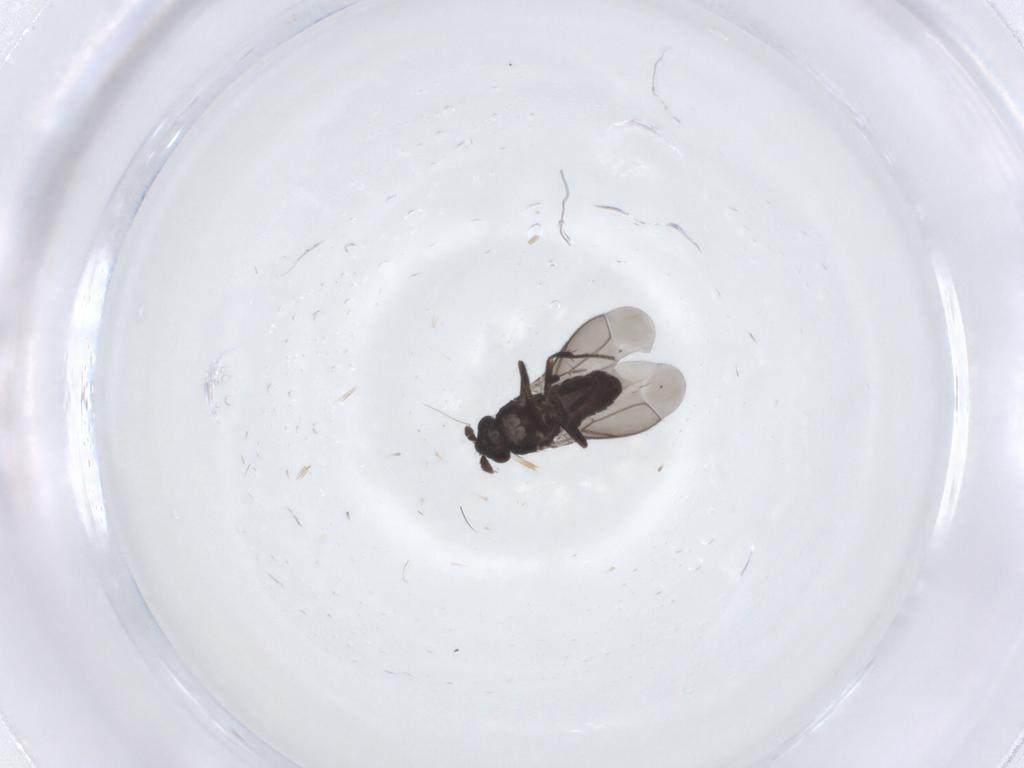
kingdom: Animalia
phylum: Arthropoda
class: Insecta
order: Diptera
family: Sphaeroceridae
